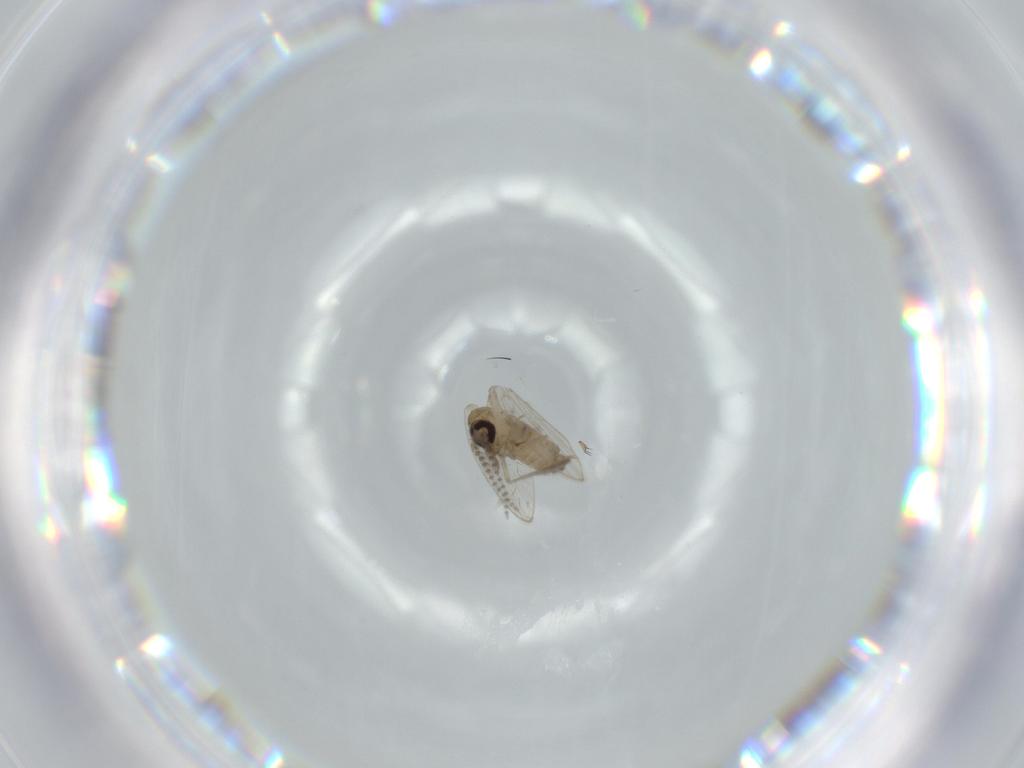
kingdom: Animalia
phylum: Arthropoda
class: Insecta
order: Diptera
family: Psychodidae
